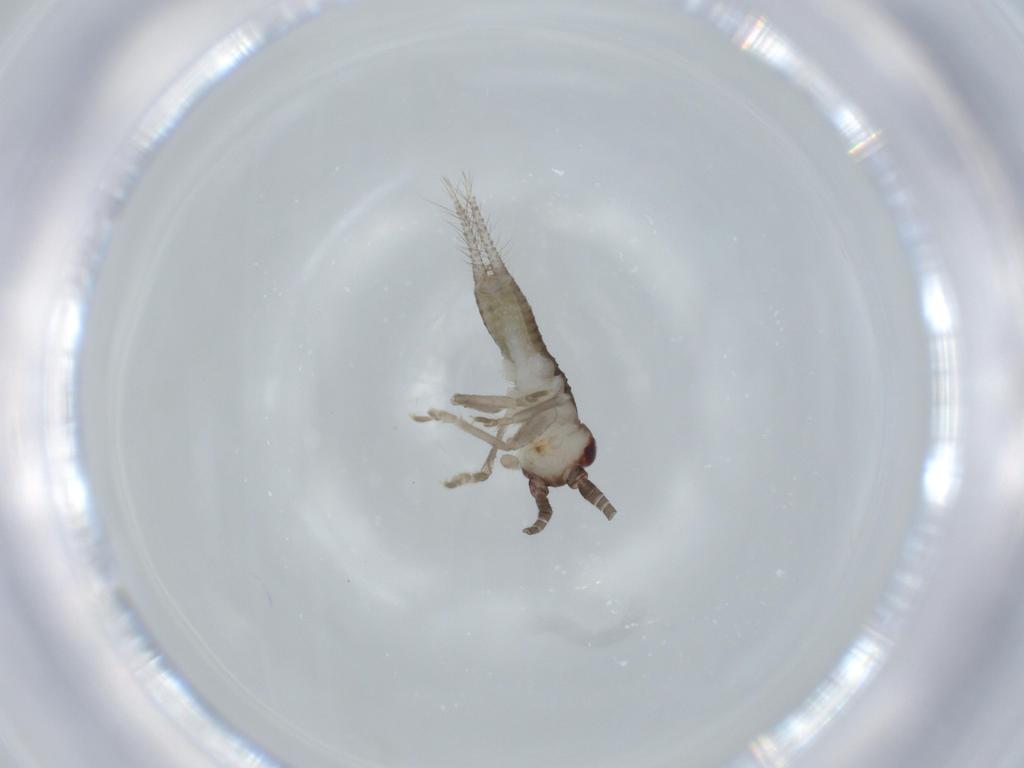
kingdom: Animalia
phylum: Arthropoda
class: Insecta
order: Orthoptera
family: Gryllidae
